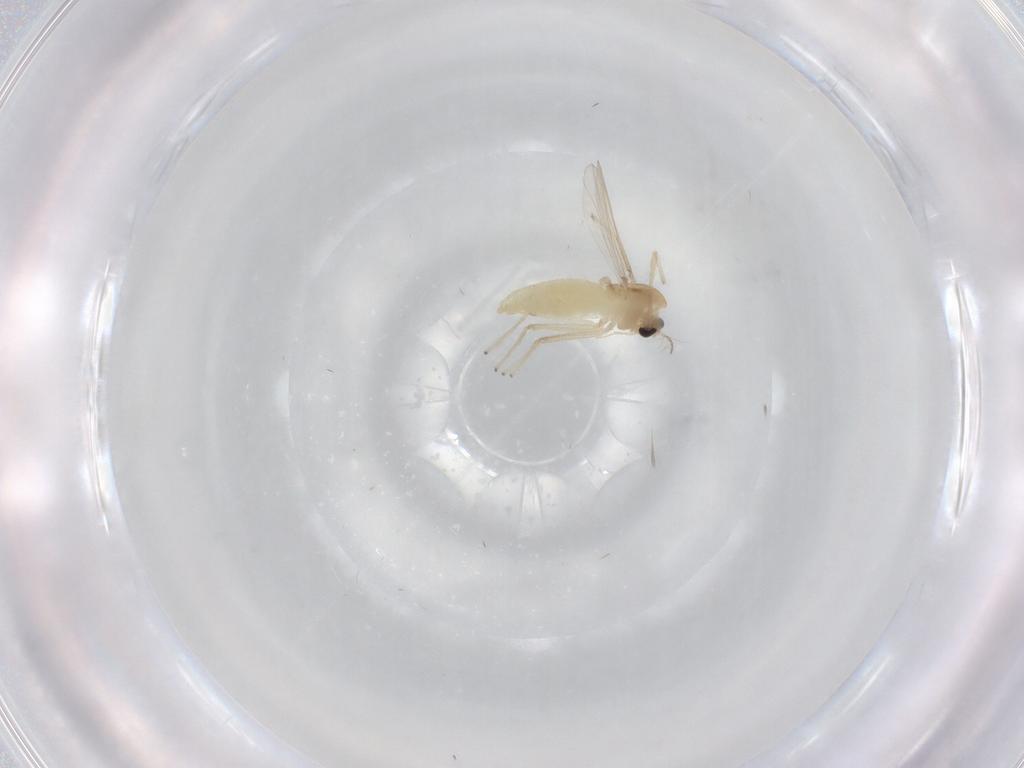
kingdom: Animalia
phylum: Arthropoda
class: Insecta
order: Diptera
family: Chironomidae
